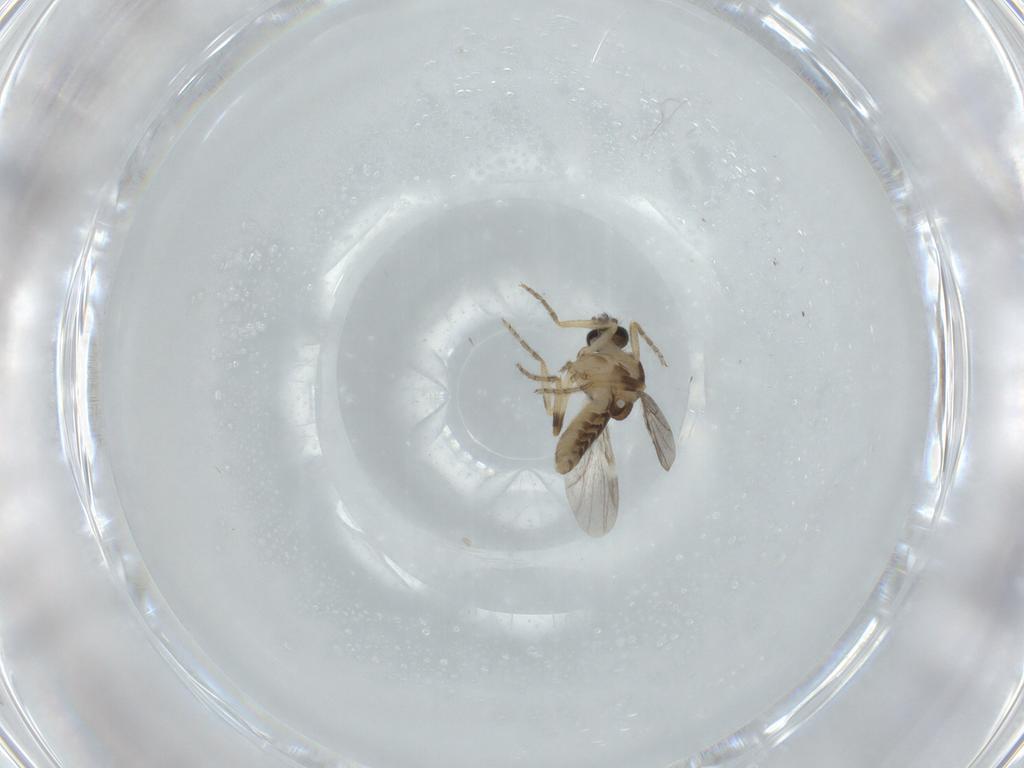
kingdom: Animalia
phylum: Arthropoda
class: Insecta
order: Diptera
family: Ceratopogonidae
